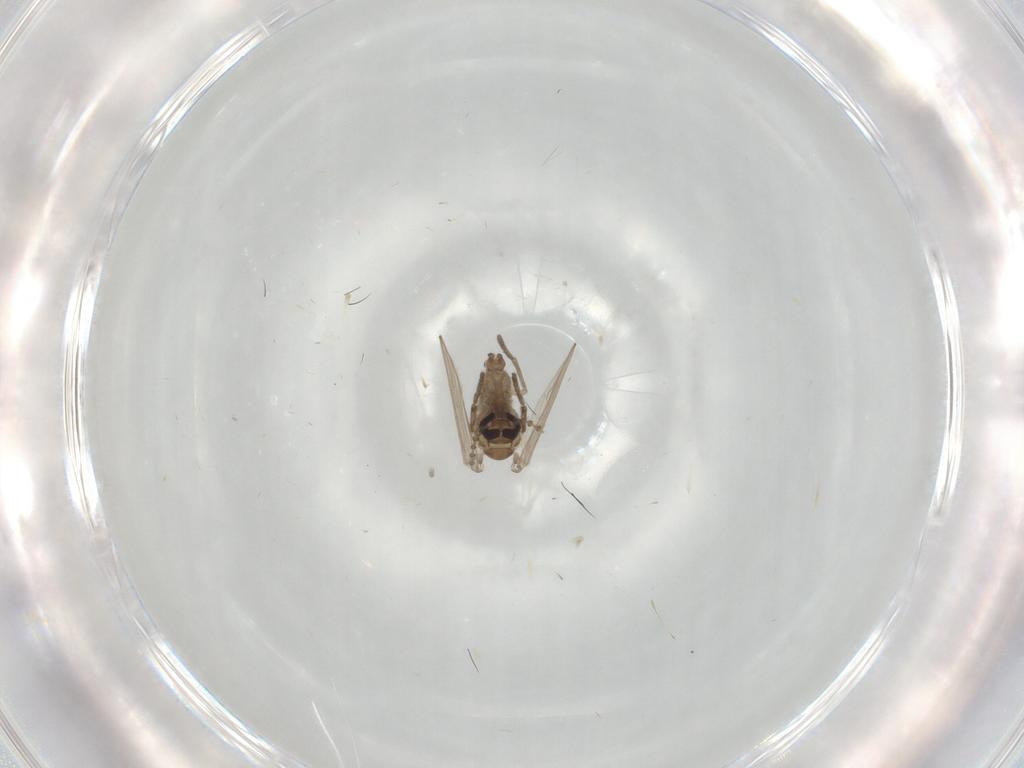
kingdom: Animalia
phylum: Arthropoda
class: Insecta
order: Diptera
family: Cecidomyiidae
